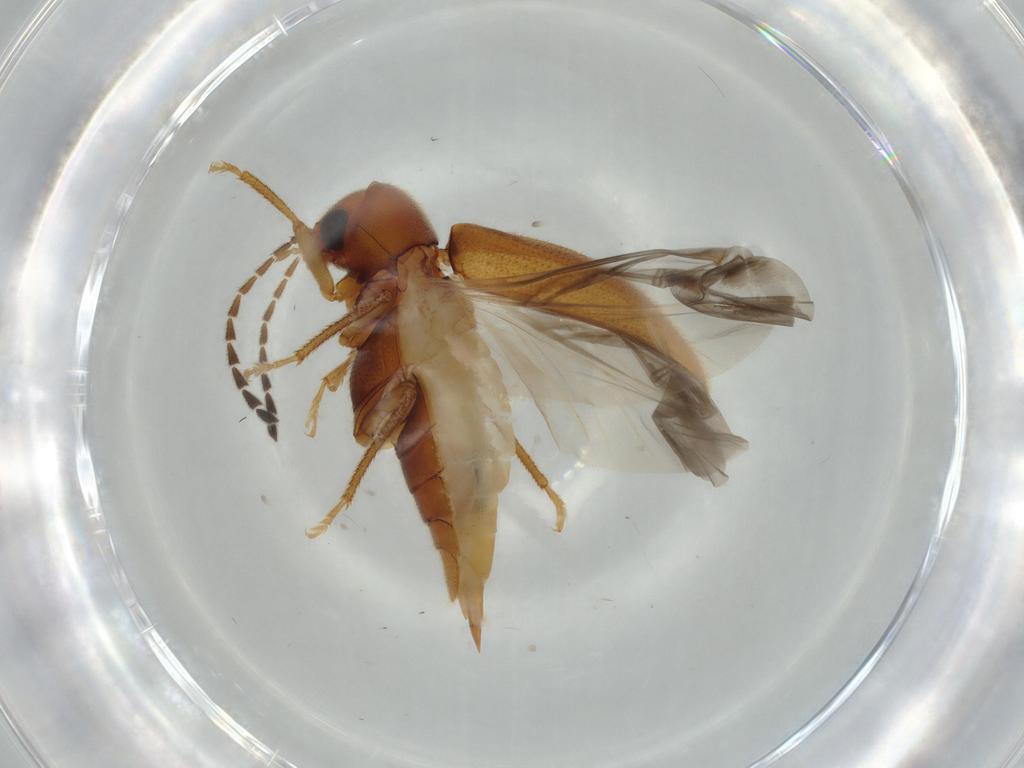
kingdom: Animalia
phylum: Arthropoda
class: Insecta
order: Coleoptera
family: Ptilodactylidae
